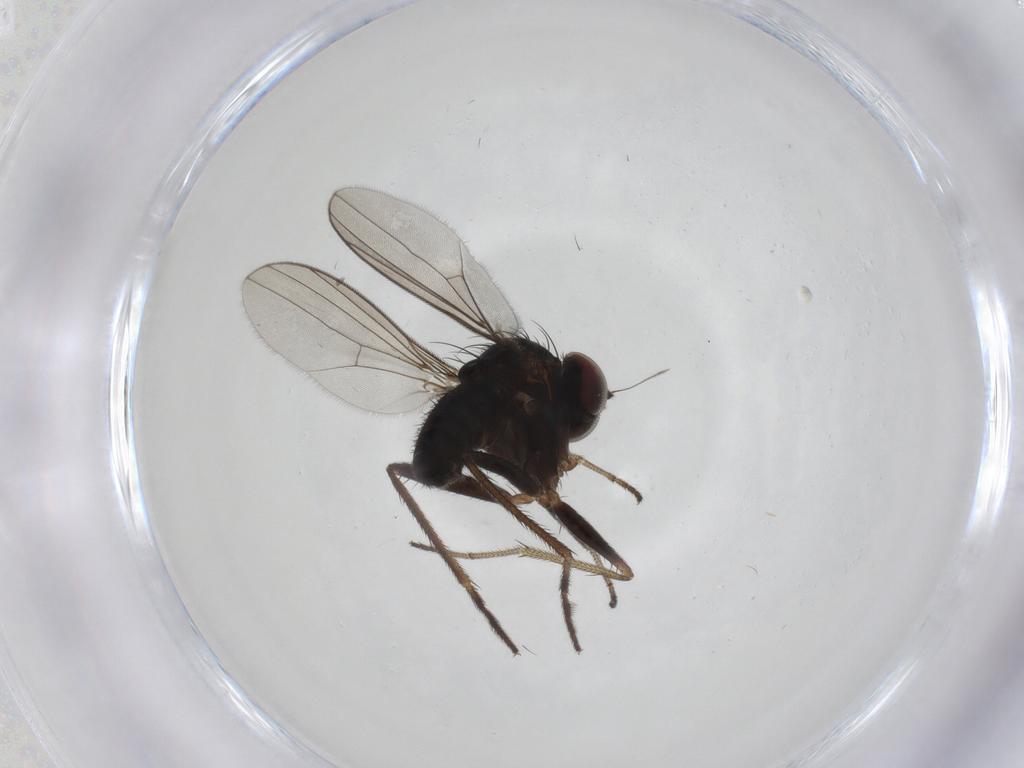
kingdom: Animalia
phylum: Arthropoda
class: Insecta
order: Diptera
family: Dolichopodidae
